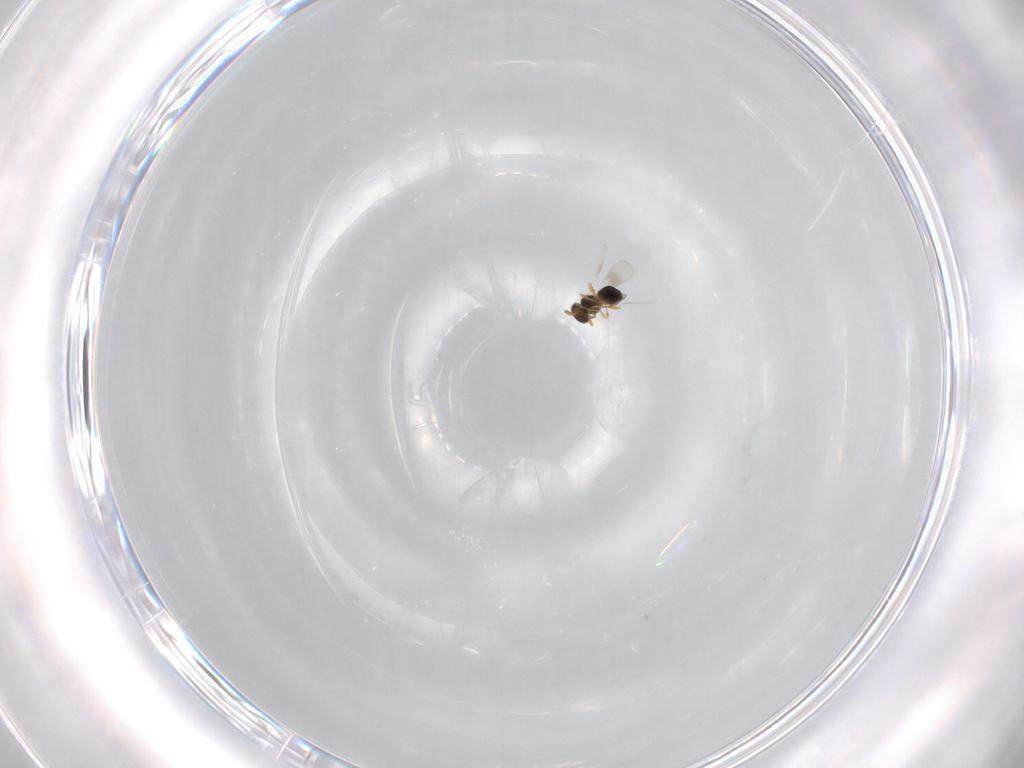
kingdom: Animalia
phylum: Arthropoda
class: Insecta
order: Hymenoptera
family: Platygastridae
